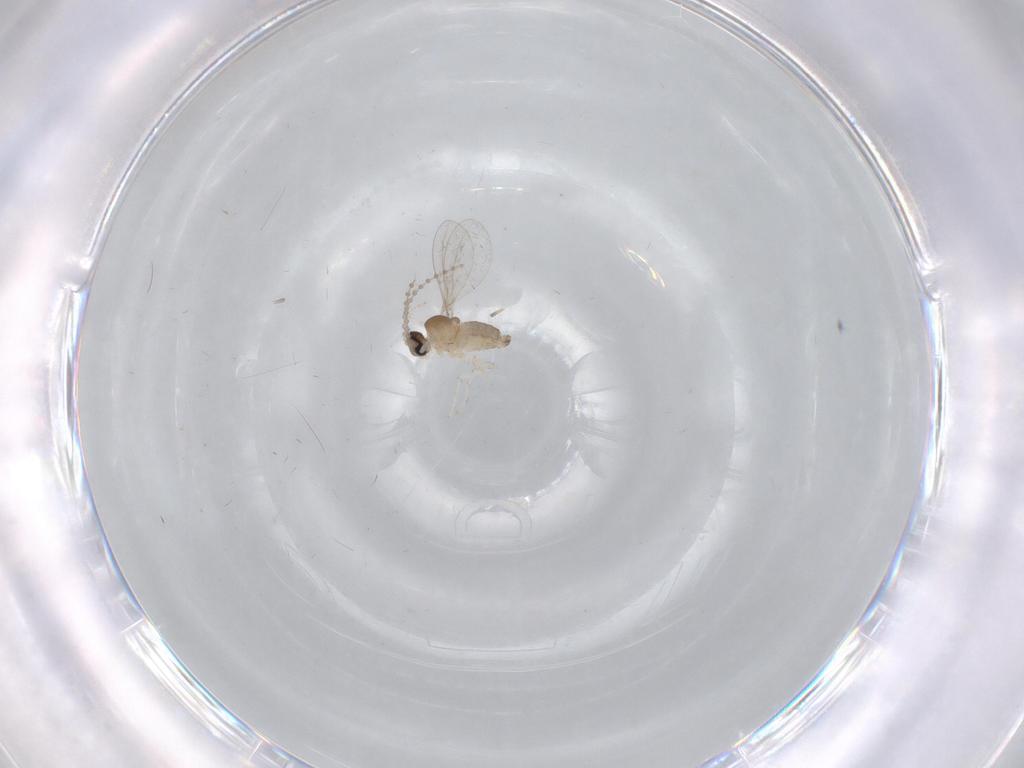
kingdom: Animalia
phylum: Arthropoda
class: Insecta
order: Diptera
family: Cecidomyiidae
